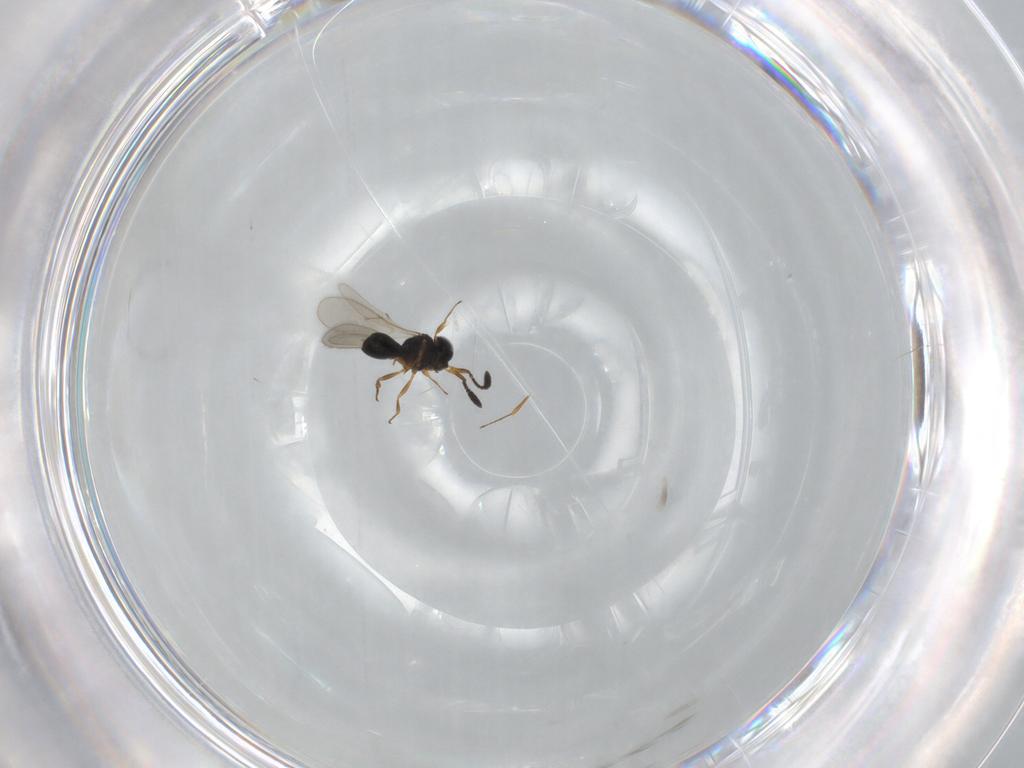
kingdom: Animalia
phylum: Arthropoda
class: Insecta
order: Hymenoptera
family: Scelionidae
